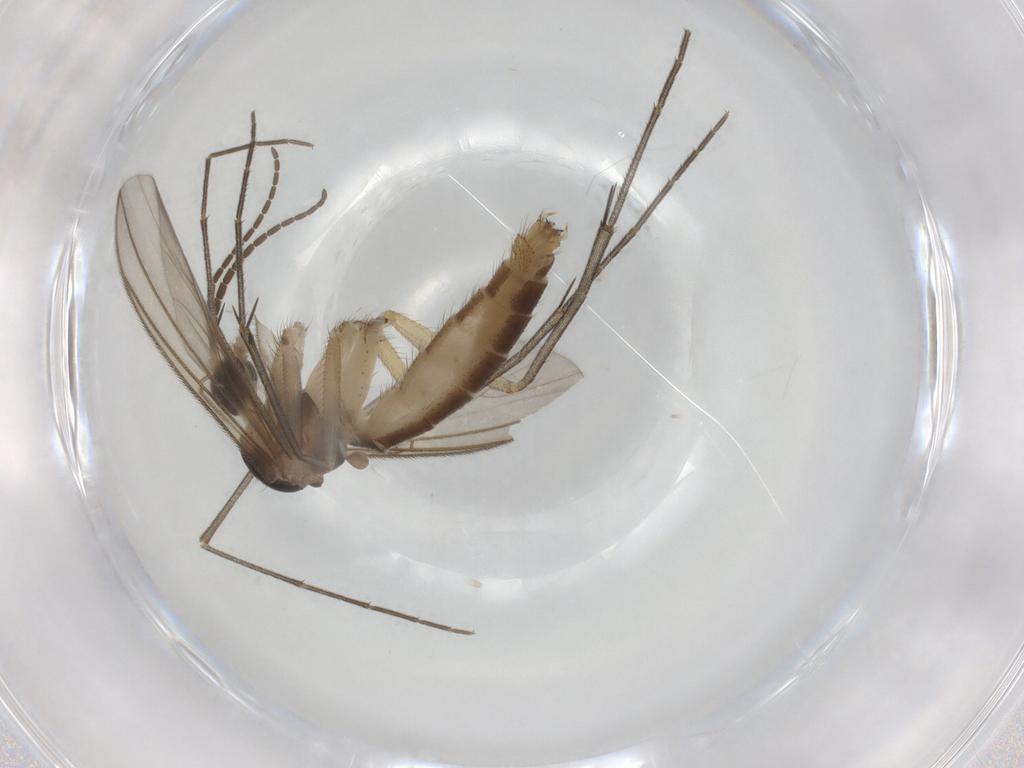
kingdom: Animalia
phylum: Arthropoda
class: Insecta
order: Diptera
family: Mycetophilidae
